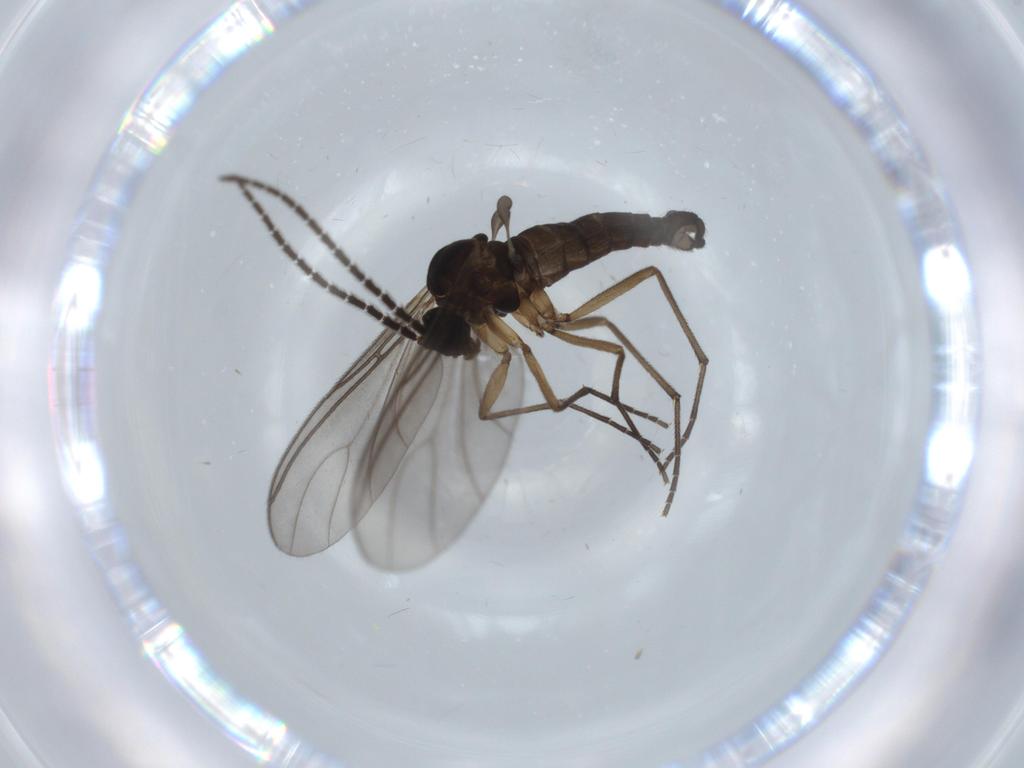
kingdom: Animalia
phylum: Arthropoda
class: Insecta
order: Diptera
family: Sciaridae
